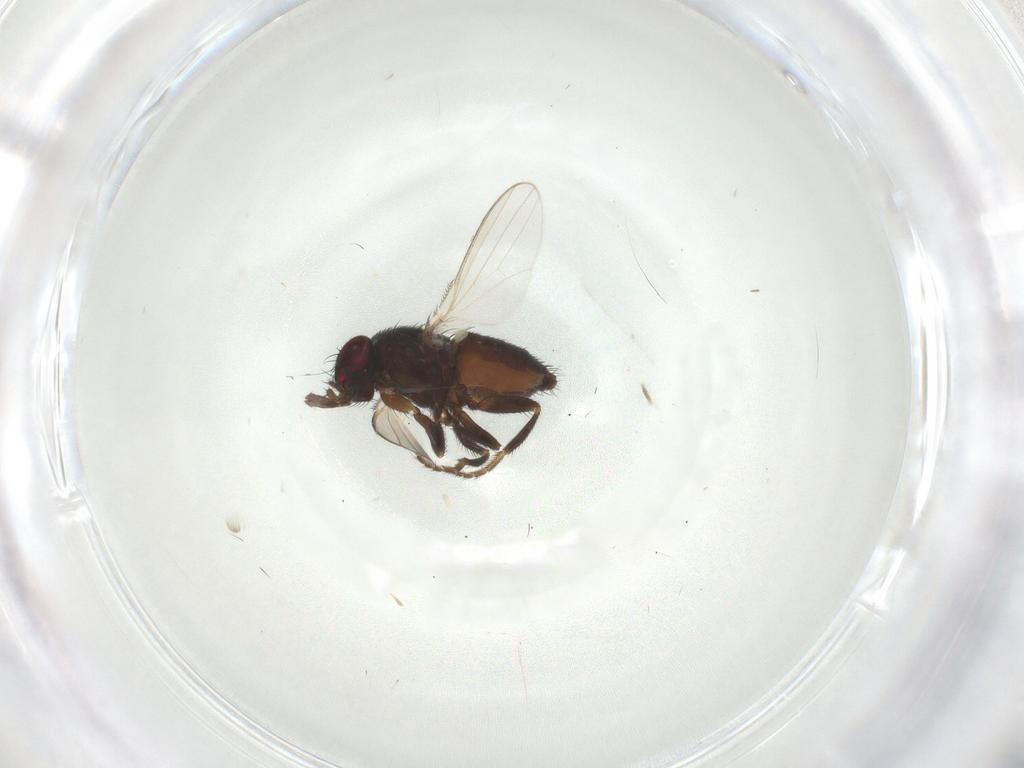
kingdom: Animalia
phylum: Arthropoda
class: Insecta
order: Diptera
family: Milichiidae
